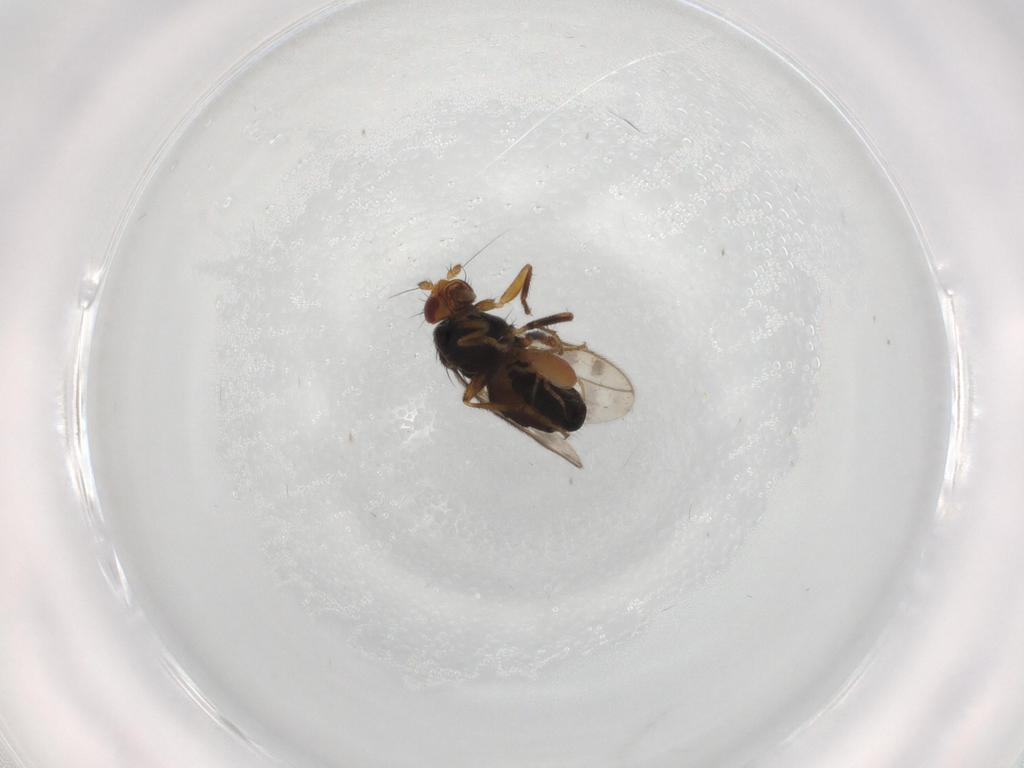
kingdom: Animalia
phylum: Arthropoda
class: Insecta
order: Diptera
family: Sphaeroceridae
